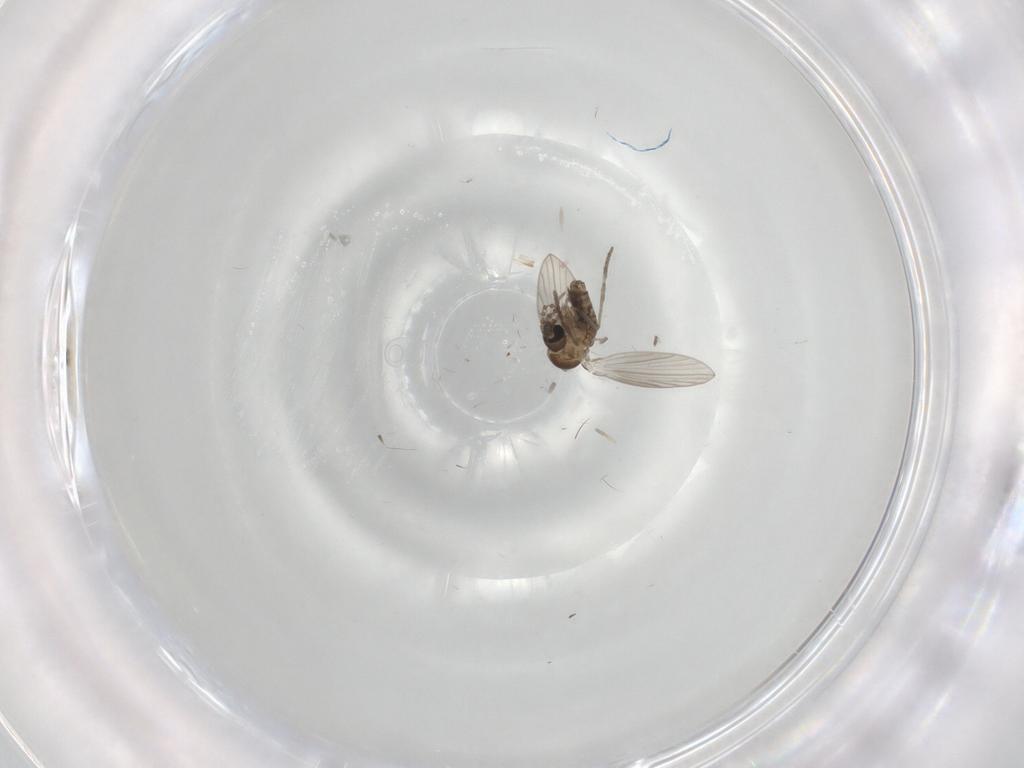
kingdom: Animalia
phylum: Arthropoda
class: Insecta
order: Diptera
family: Psychodidae
